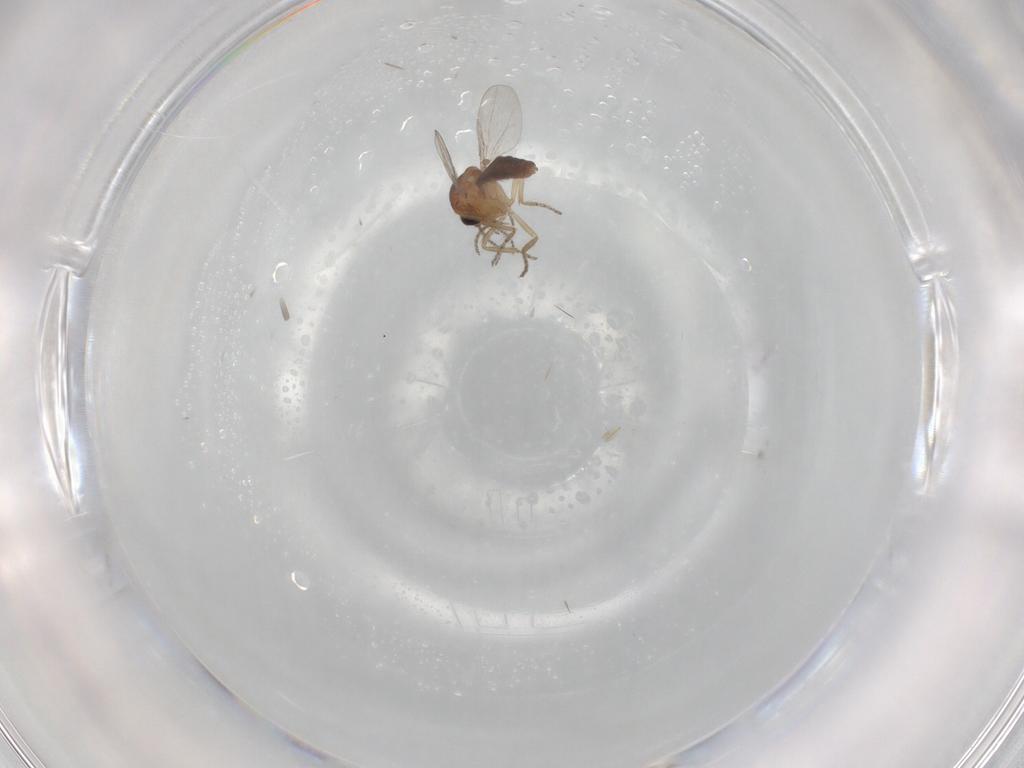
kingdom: Animalia
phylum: Arthropoda
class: Insecta
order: Diptera
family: Ceratopogonidae
